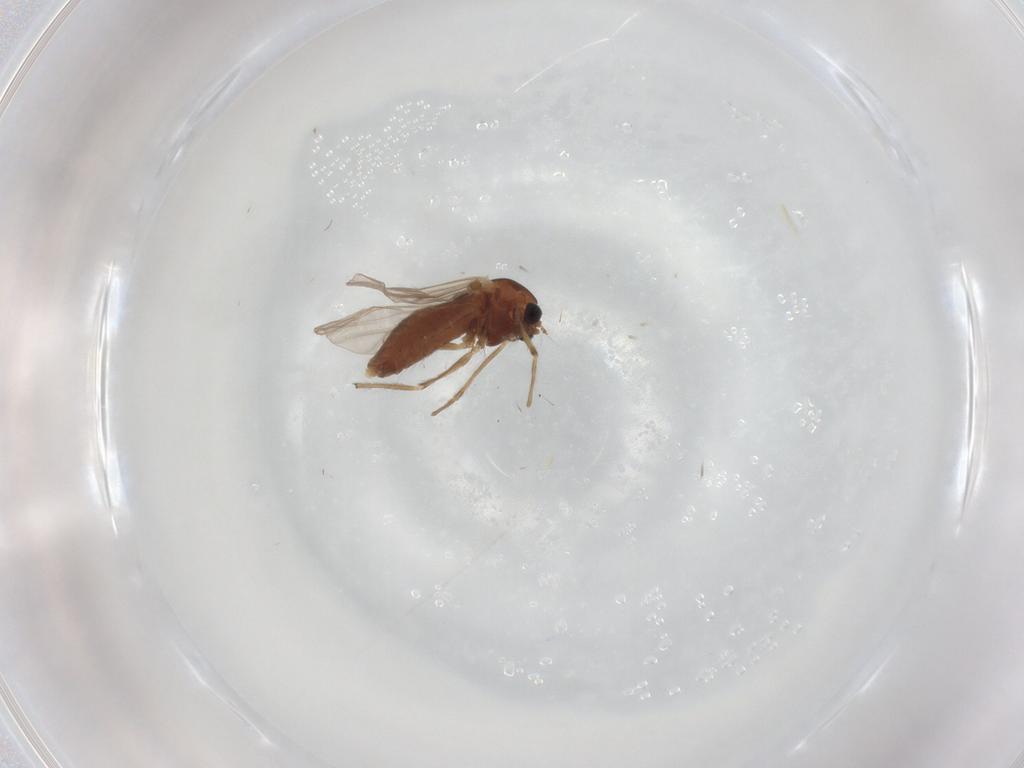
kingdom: Animalia
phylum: Arthropoda
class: Insecta
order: Diptera
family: Chironomidae
